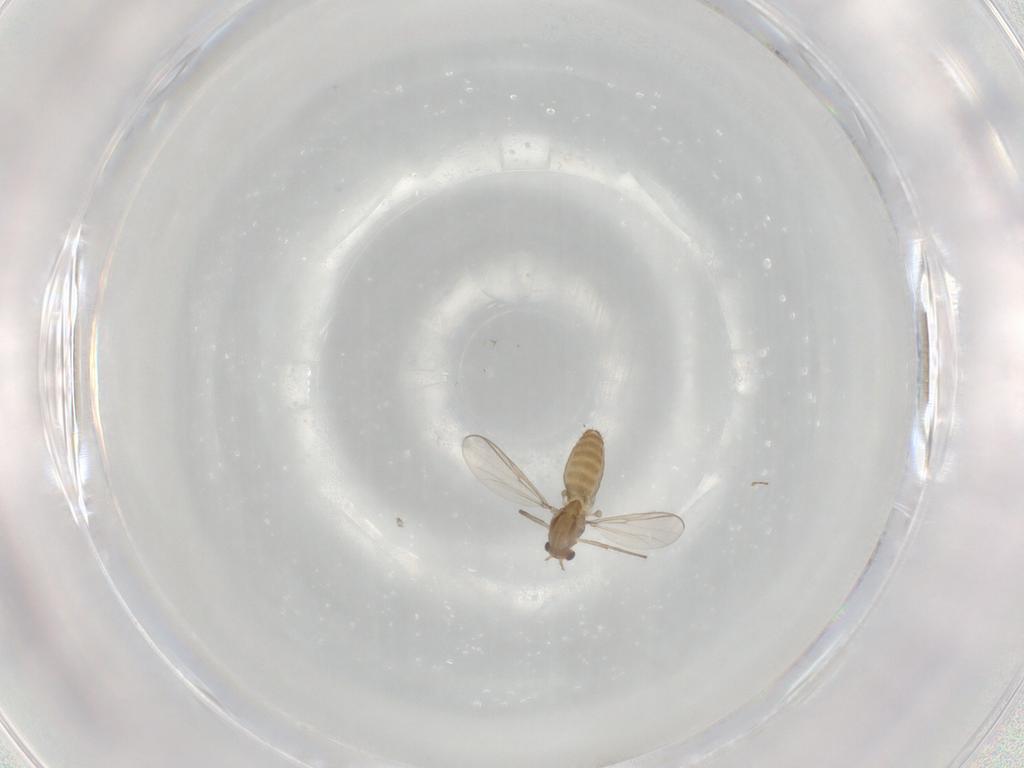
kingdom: Animalia
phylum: Arthropoda
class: Insecta
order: Diptera
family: Chironomidae
